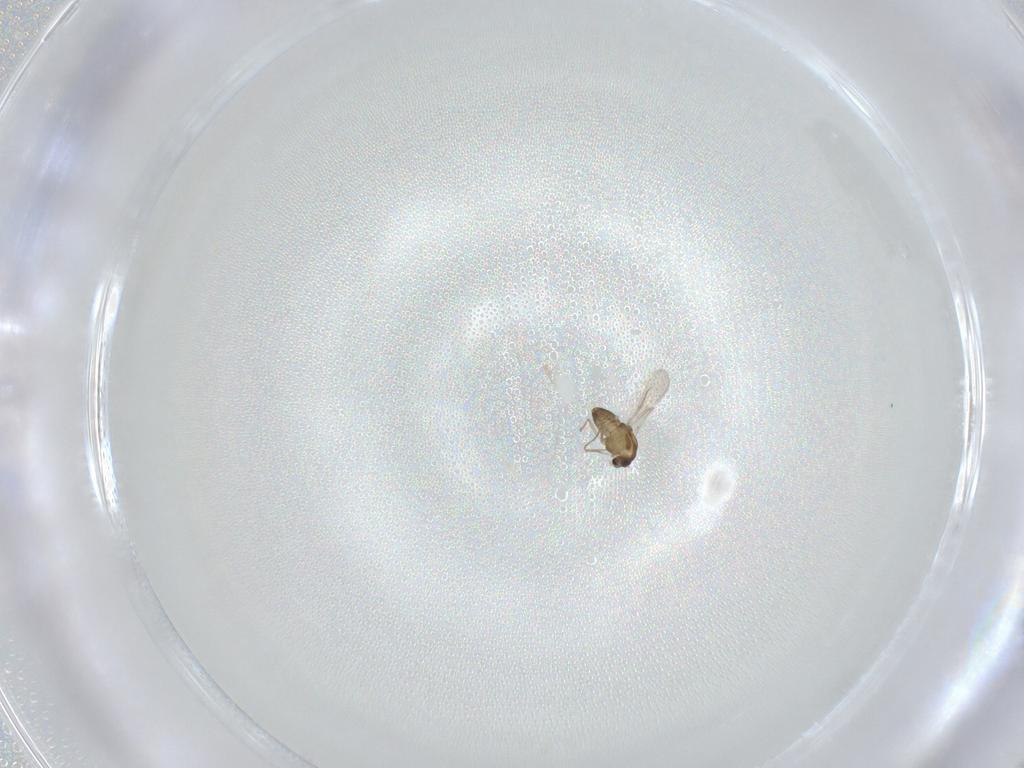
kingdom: Animalia
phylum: Arthropoda
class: Insecta
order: Diptera
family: Chironomidae
